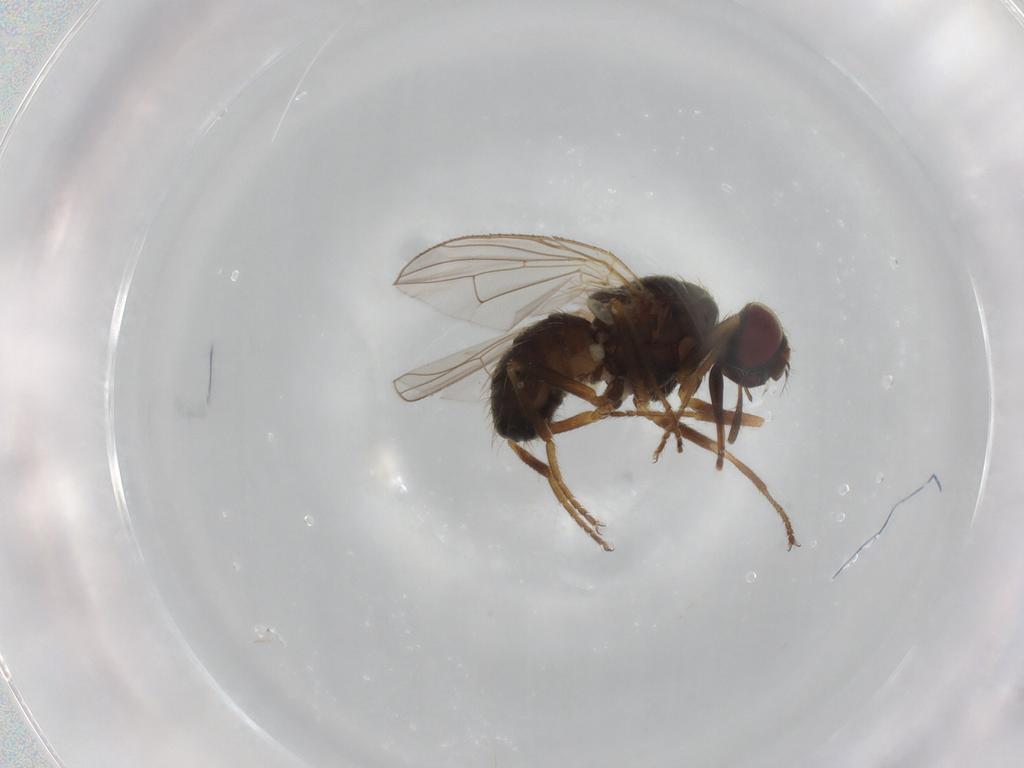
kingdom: Animalia
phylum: Arthropoda
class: Insecta
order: Diptera
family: Muscidae
